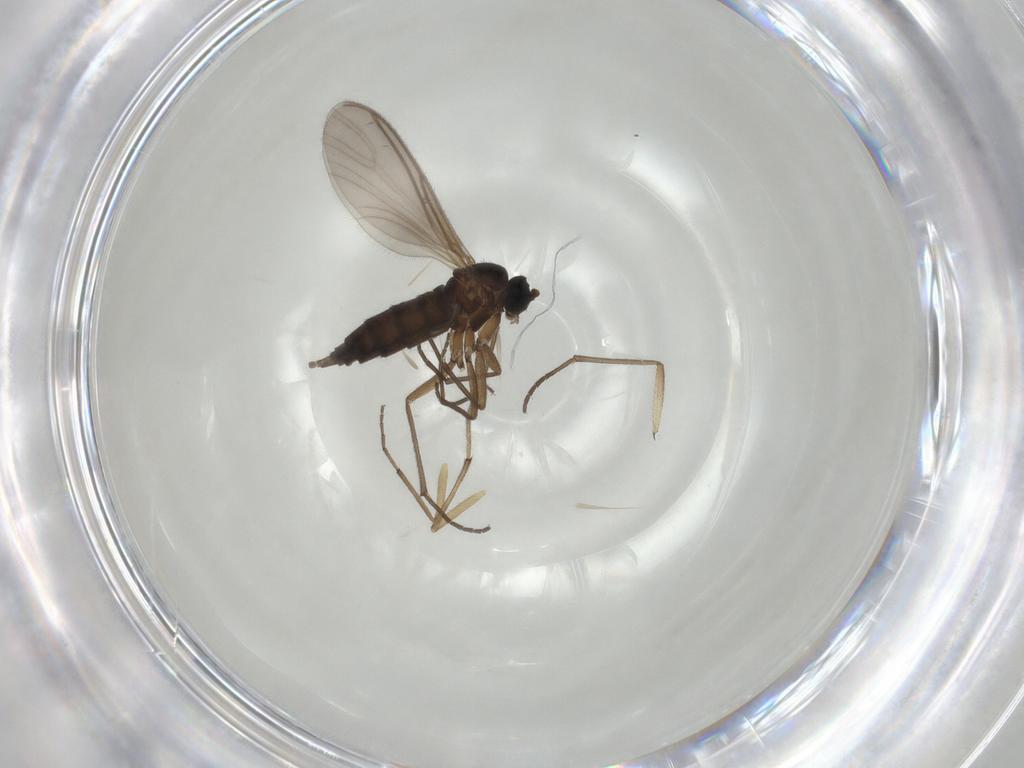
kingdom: Animalia
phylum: Arthropoda
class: Insecta
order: Diptera
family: Sciaridae
